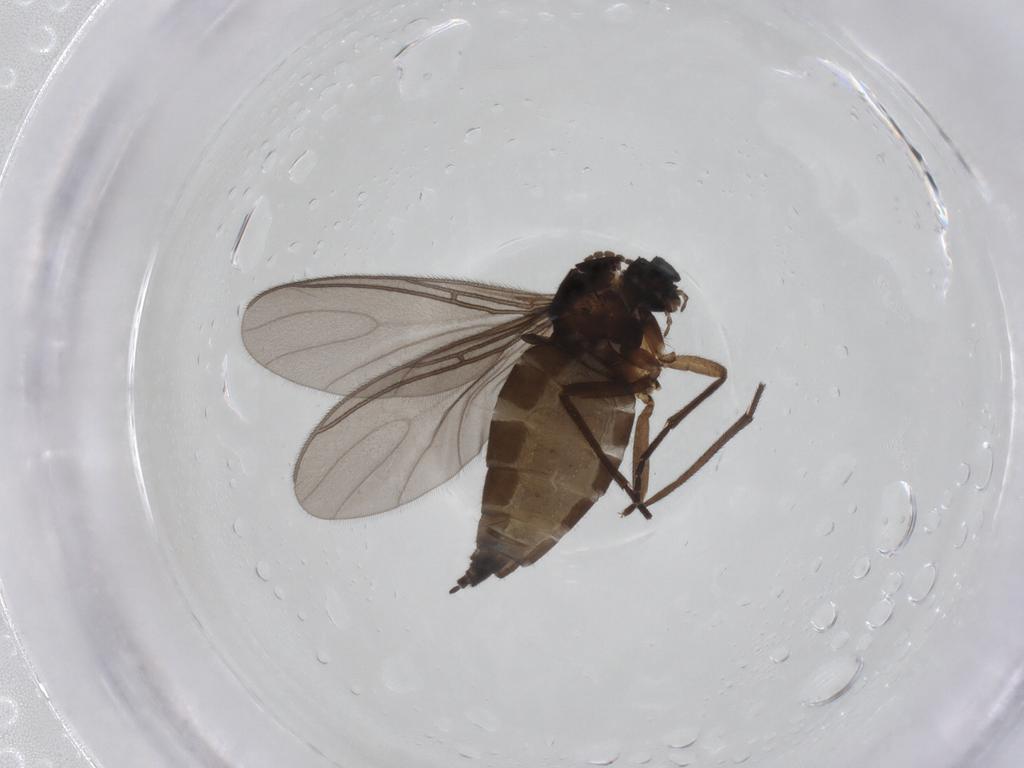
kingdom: Animalia
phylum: Arthropoda
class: Insecta
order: Diptera
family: Sciaridae
